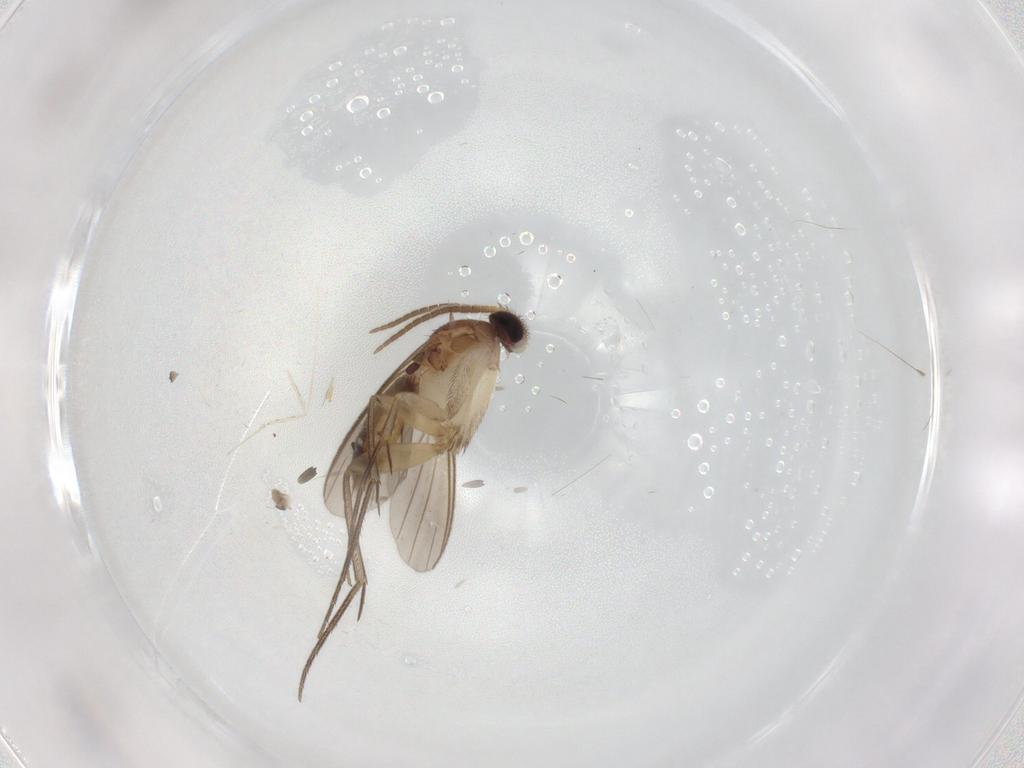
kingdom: Animalia
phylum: Arthropoda
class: Insecta
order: Diptera
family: Mycetophilidae
